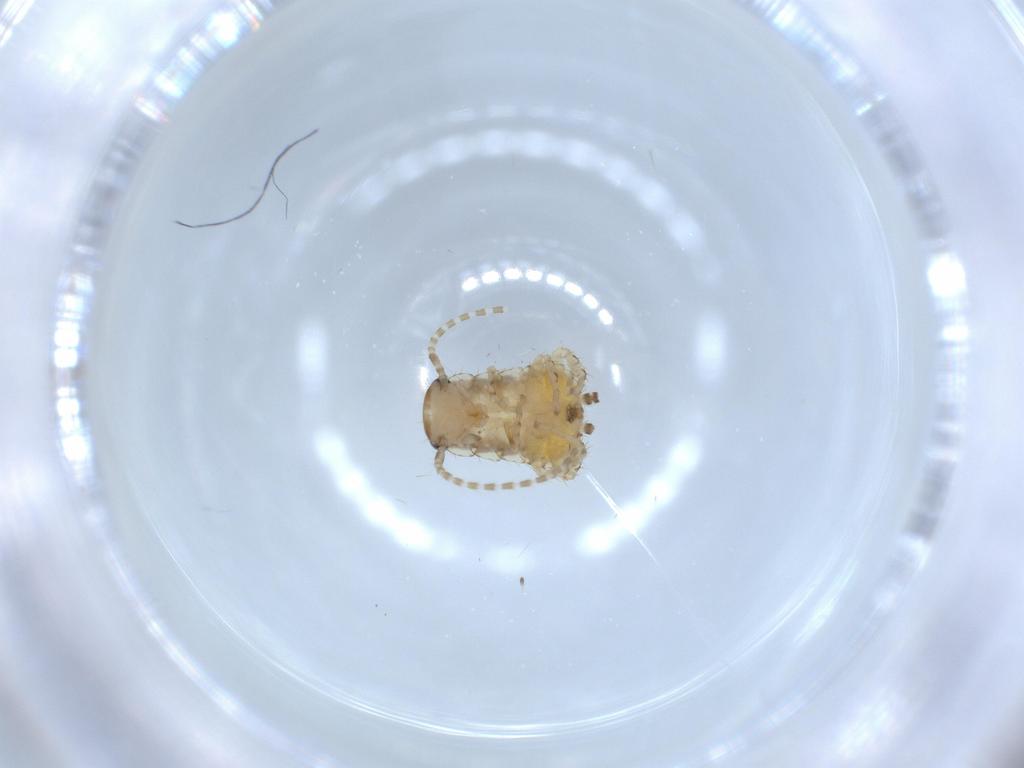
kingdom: Animalia
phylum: Arthropoda
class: Insecta
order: Blattodea
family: Ectobiidae
